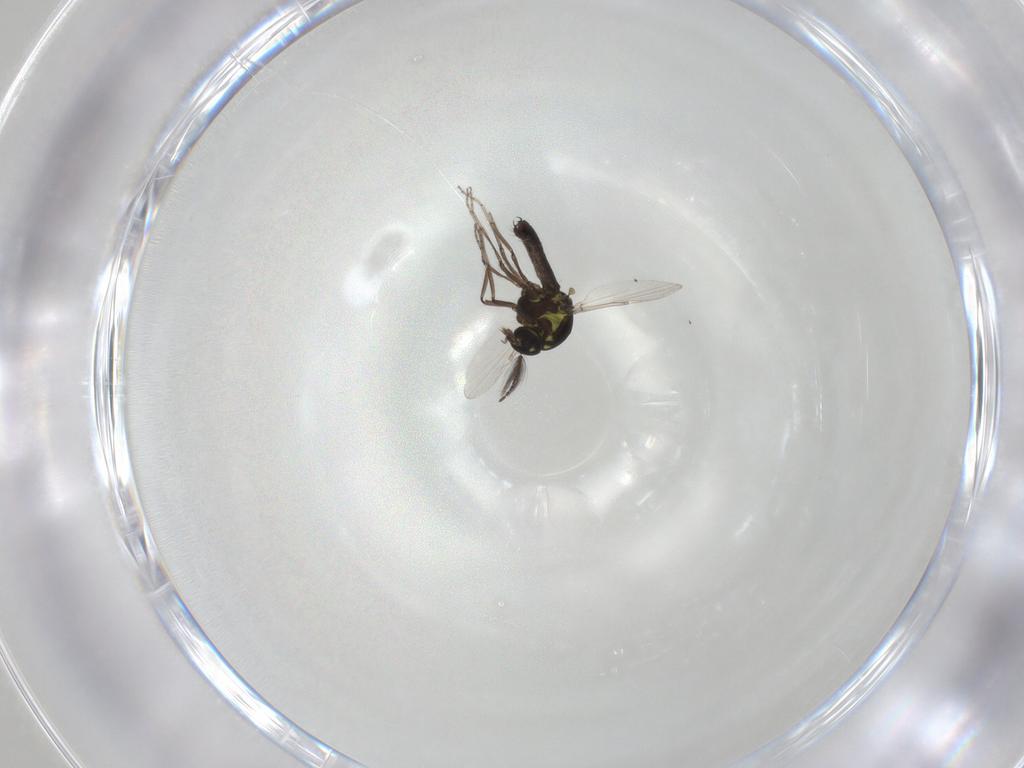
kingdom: Animalia
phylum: Arthropoda
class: Insecta
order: Diptera
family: Ceratopogonidae
